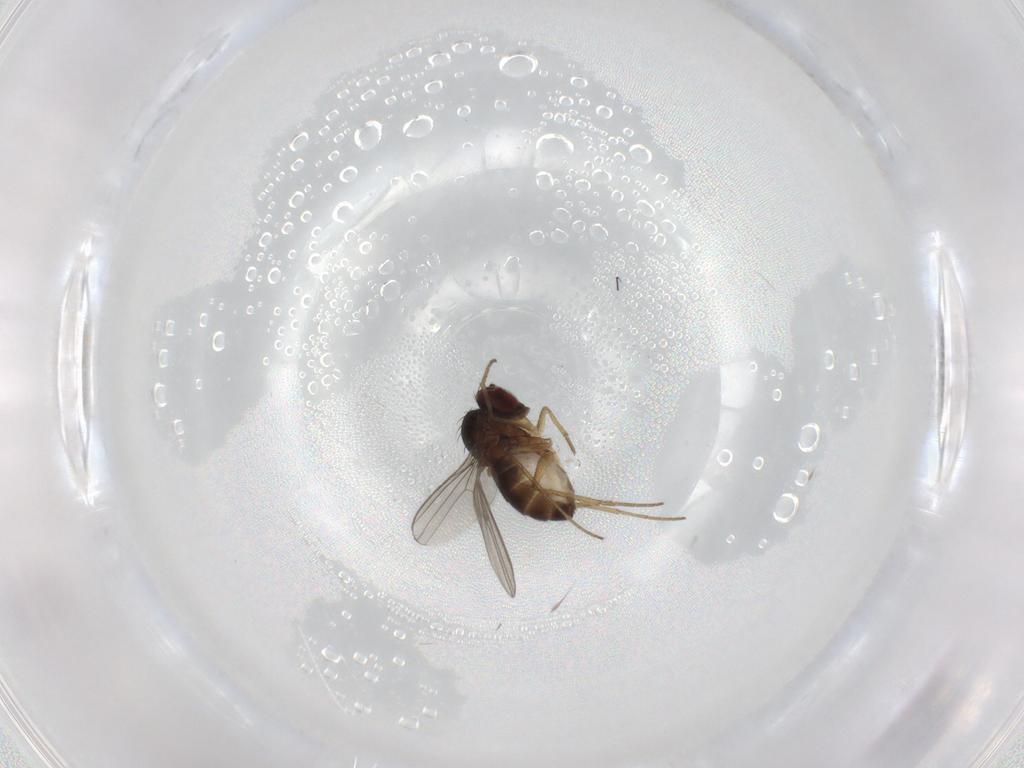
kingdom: Animalia
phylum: Arthropoda
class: Insecta
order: Diptera
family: Dolichopodidae
